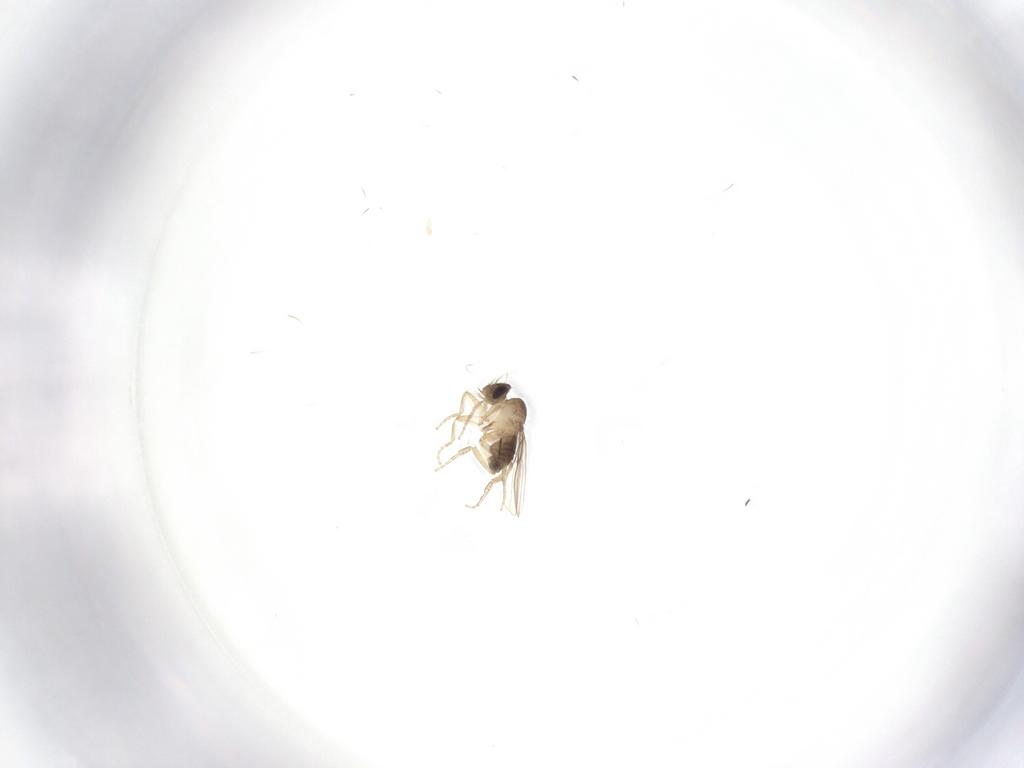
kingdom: Animalia
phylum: Arthropoda
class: Insecta
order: Diptera
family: Phoridae
